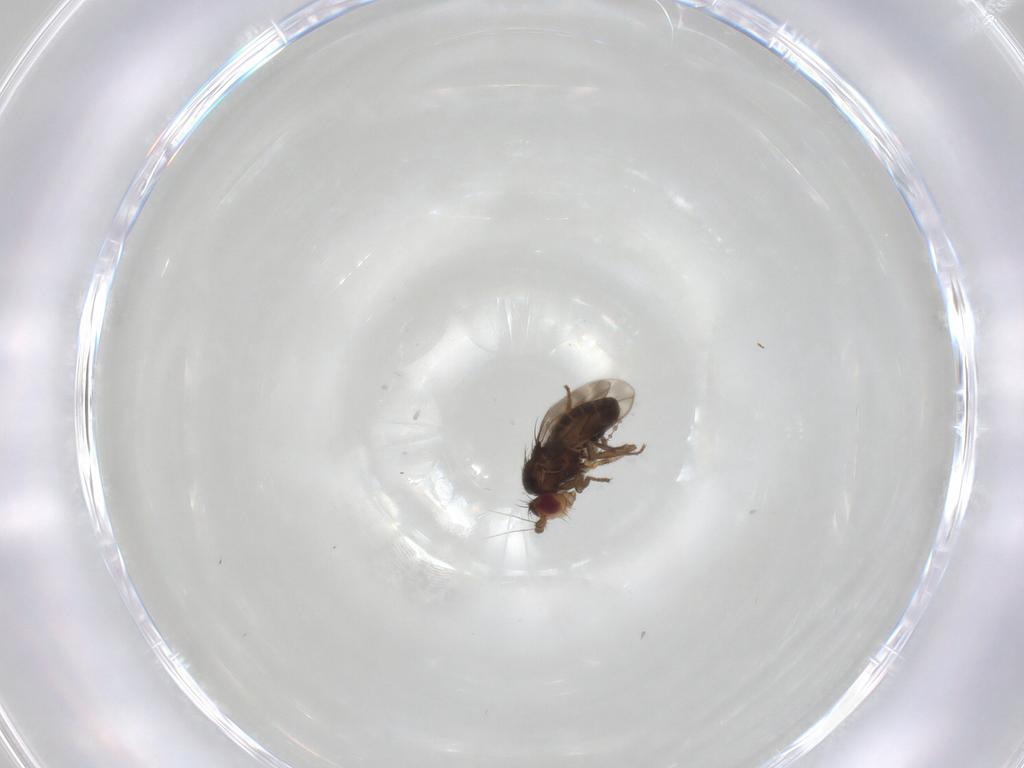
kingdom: Animalia
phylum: Arthropoda
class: Insecta
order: Diptera
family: Sphaeroceridae
